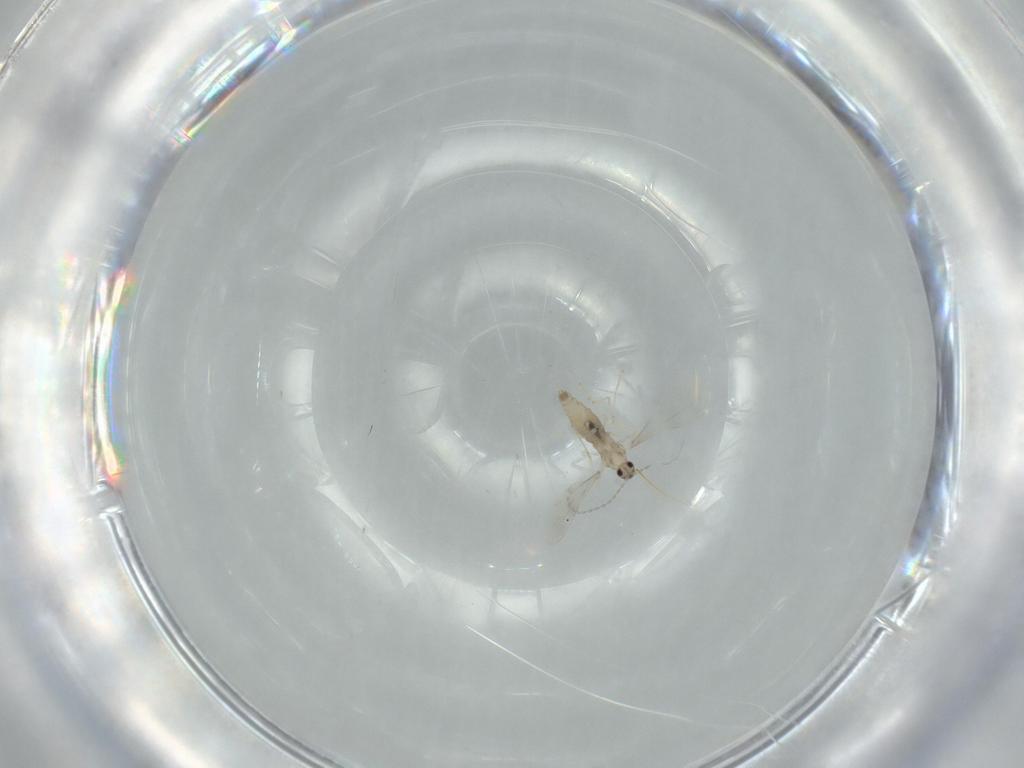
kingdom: Animalia
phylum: Arthropoda
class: Insecta
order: Diptera
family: Cecidomyiidae
